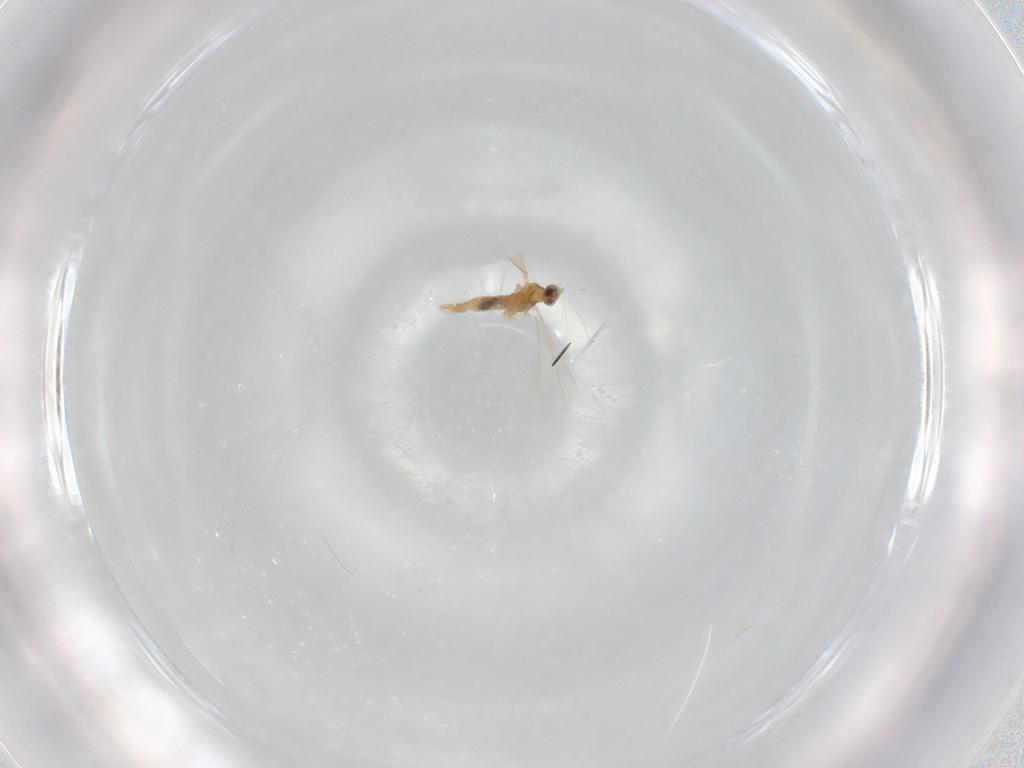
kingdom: Animalia
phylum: Arthropoda
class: Insecta
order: Diptera
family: Cecidomyiidae
